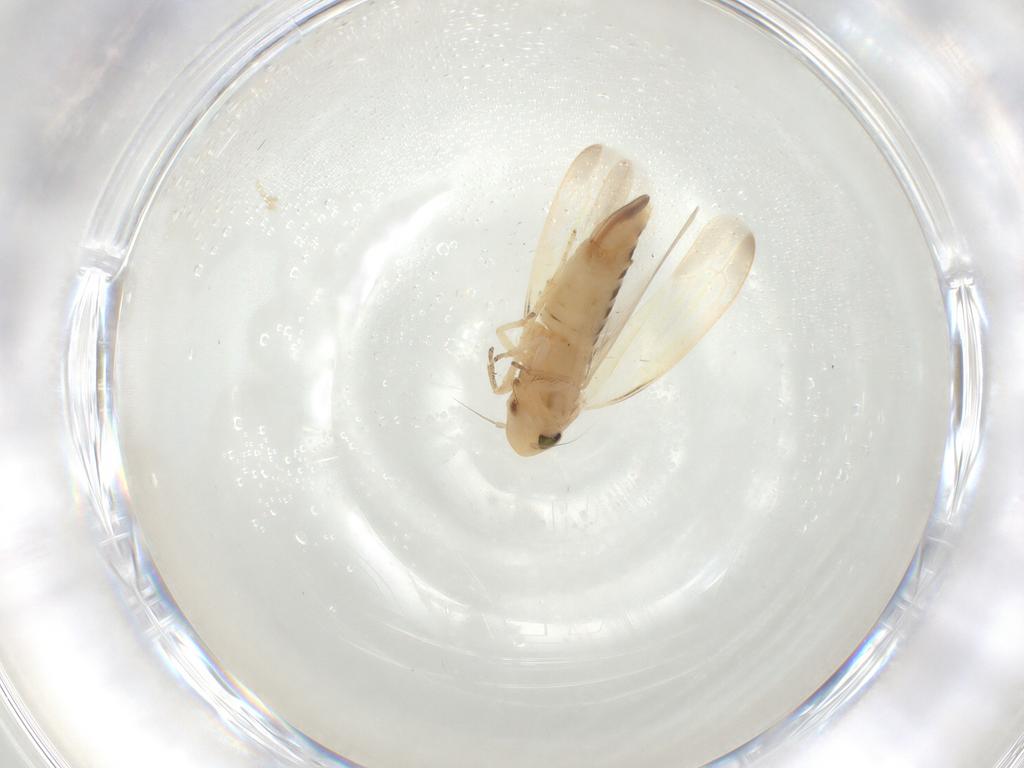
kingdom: Animalia
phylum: Arthropoda
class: Insecta
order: Hemiptera
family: Cicadellidae
